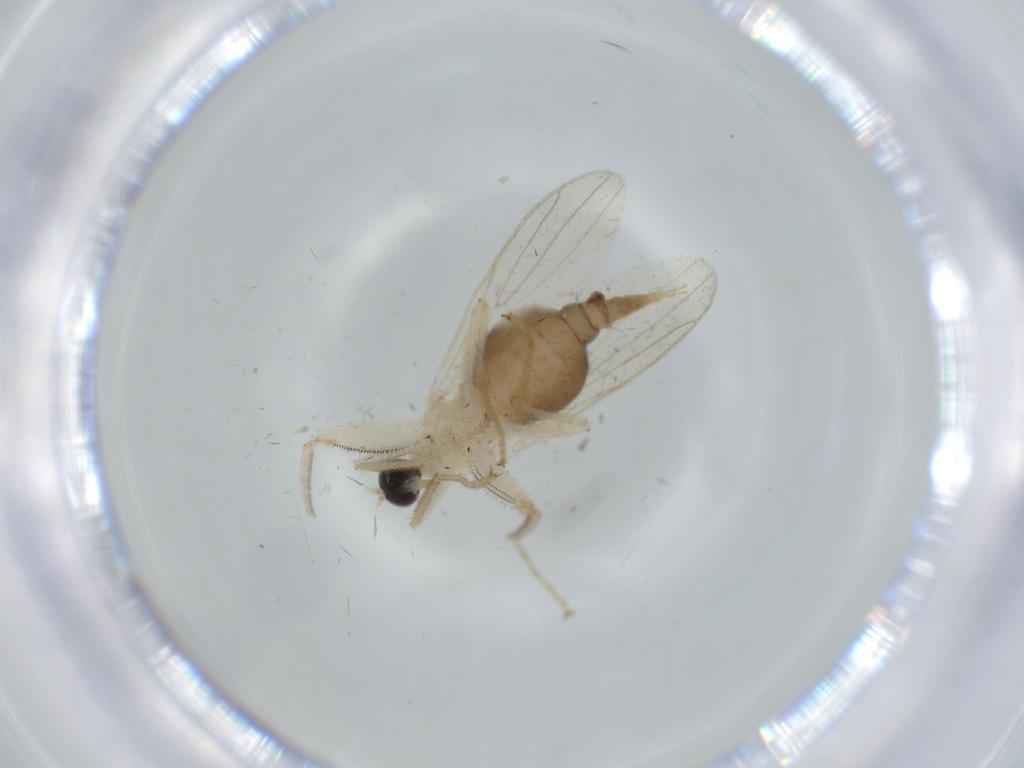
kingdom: Animalia
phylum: Arthropoda
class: Insecta
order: Diptera
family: Hybotidae
